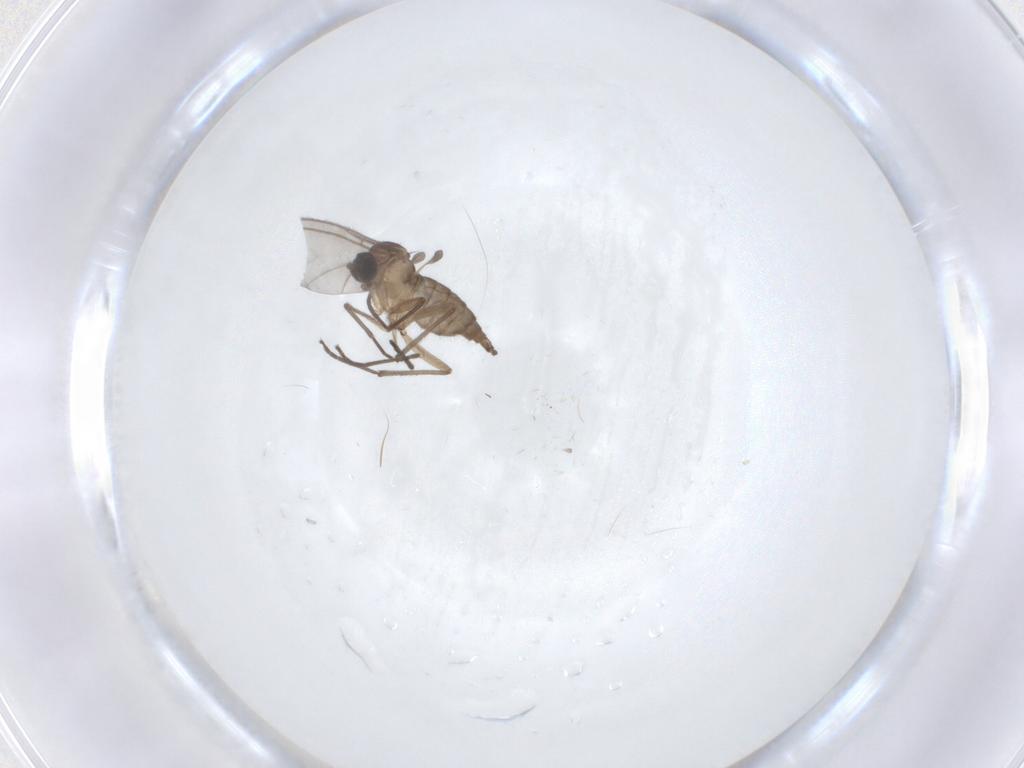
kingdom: Animalia
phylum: Arthropoda
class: Insecta
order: Diptera
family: Sciaridae
